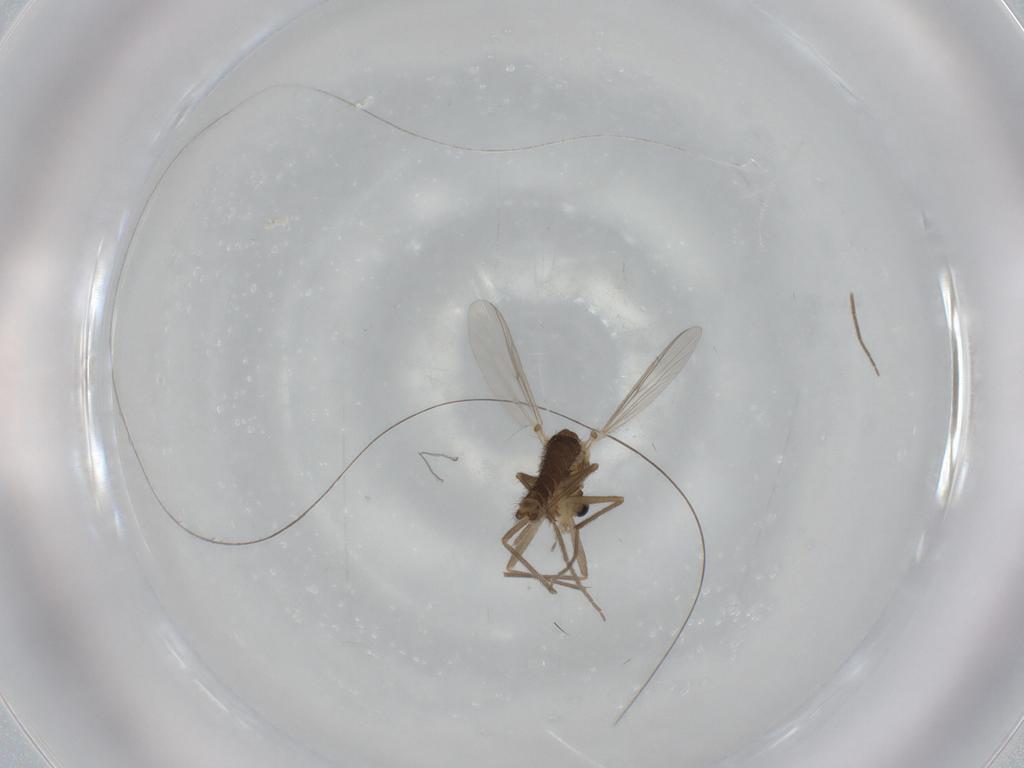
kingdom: Animalia
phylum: Arthropoda
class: Insecta
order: Diptera
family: Chironomidae
